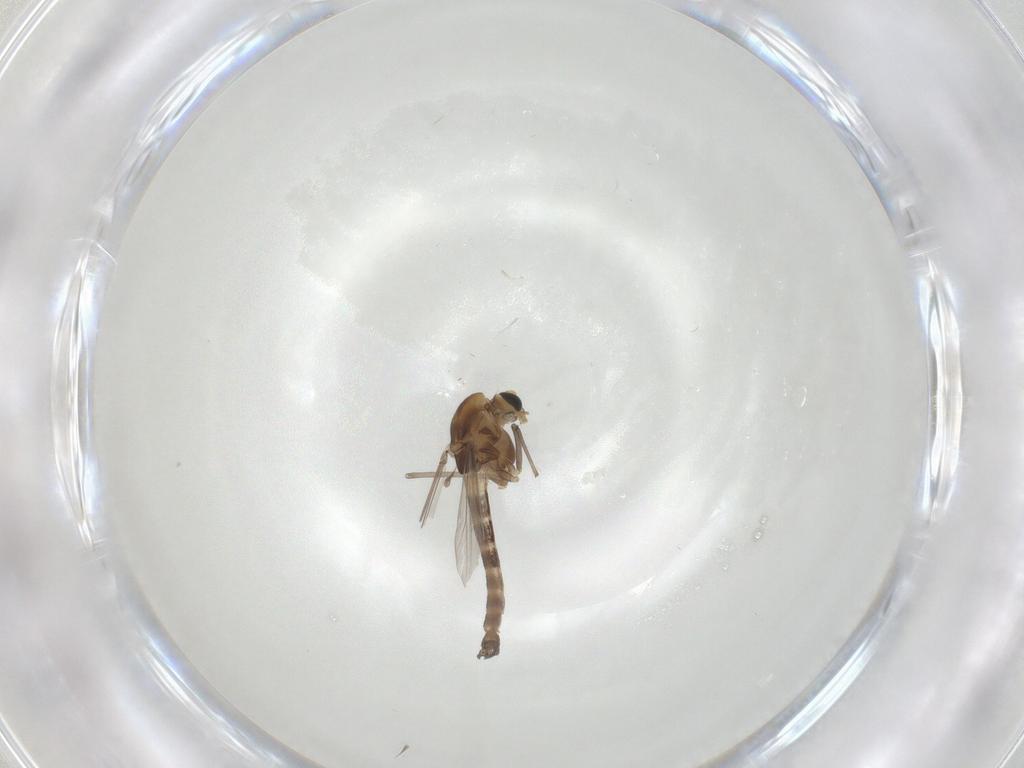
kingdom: Animalia
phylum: Arthropoda
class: Insecta
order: Diptera
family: Chironomidae
